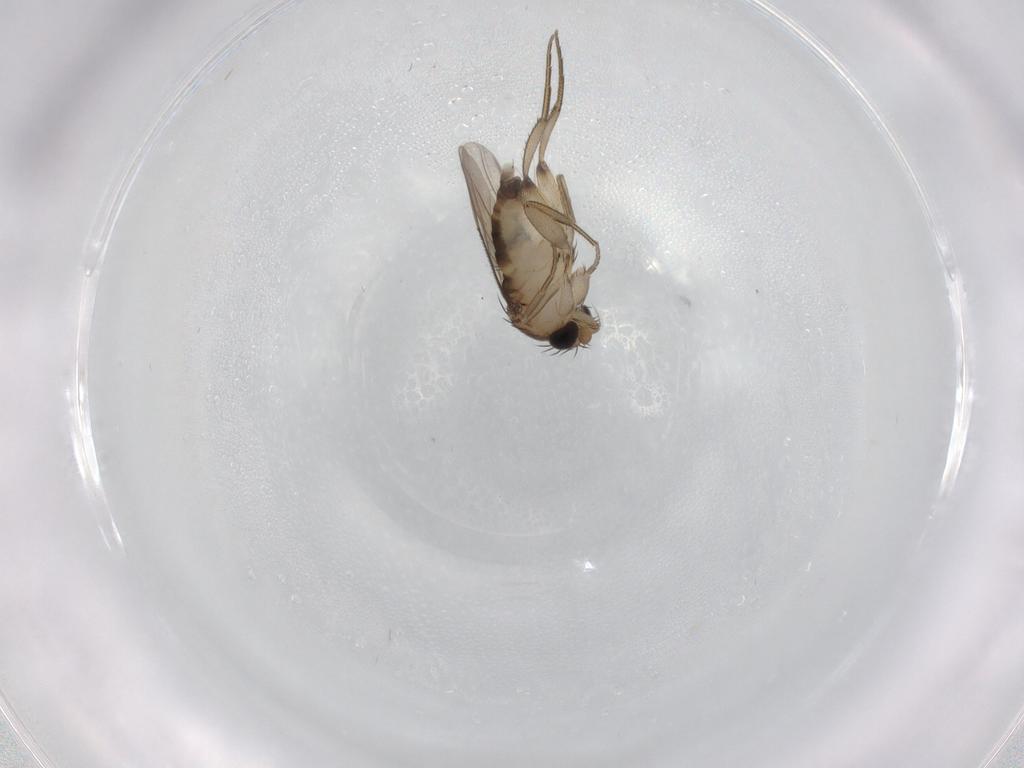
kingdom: Animalia
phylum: Arthropoda
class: Insecta
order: Diptera
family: Phoridae
